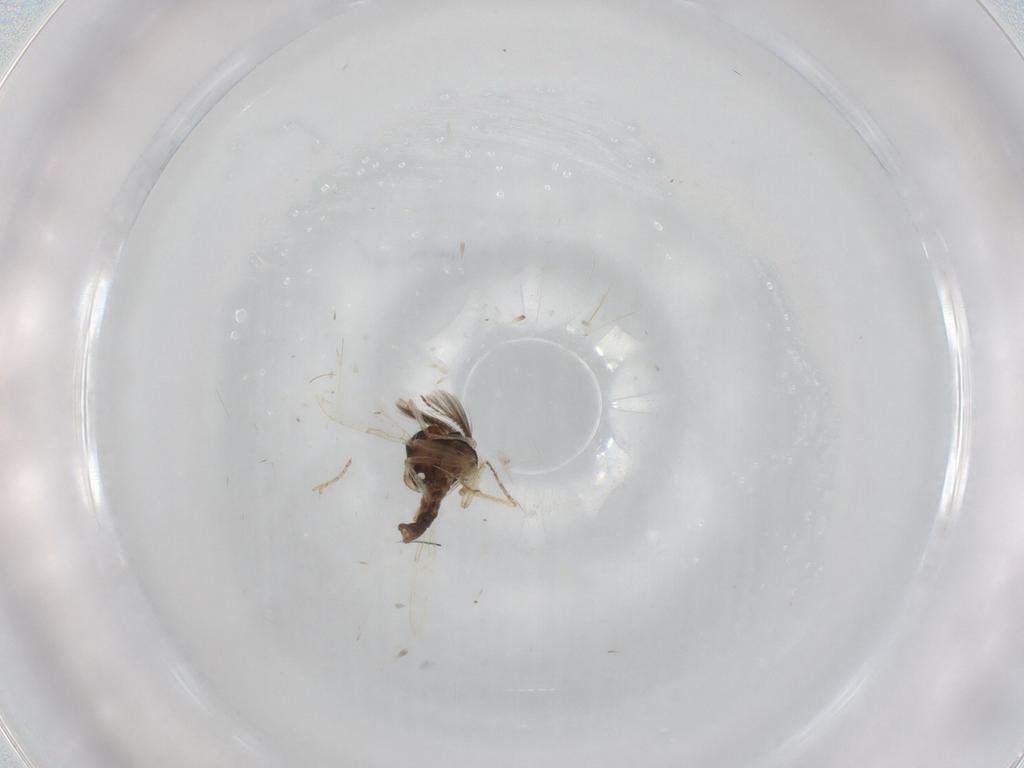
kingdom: Animalia
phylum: Arthropoda
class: Insecta
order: Diptera
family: Ceratopogonidae
